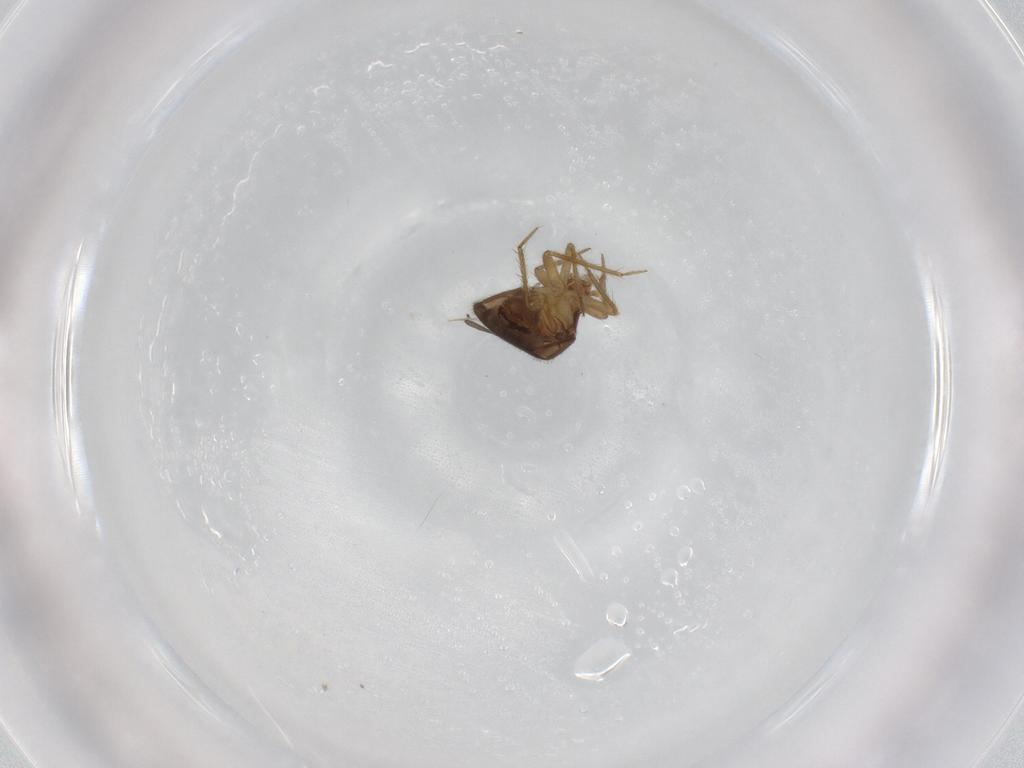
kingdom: Animalia
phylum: Arthropoda
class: Insecta
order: Hemiptera
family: Ceratocombidae
